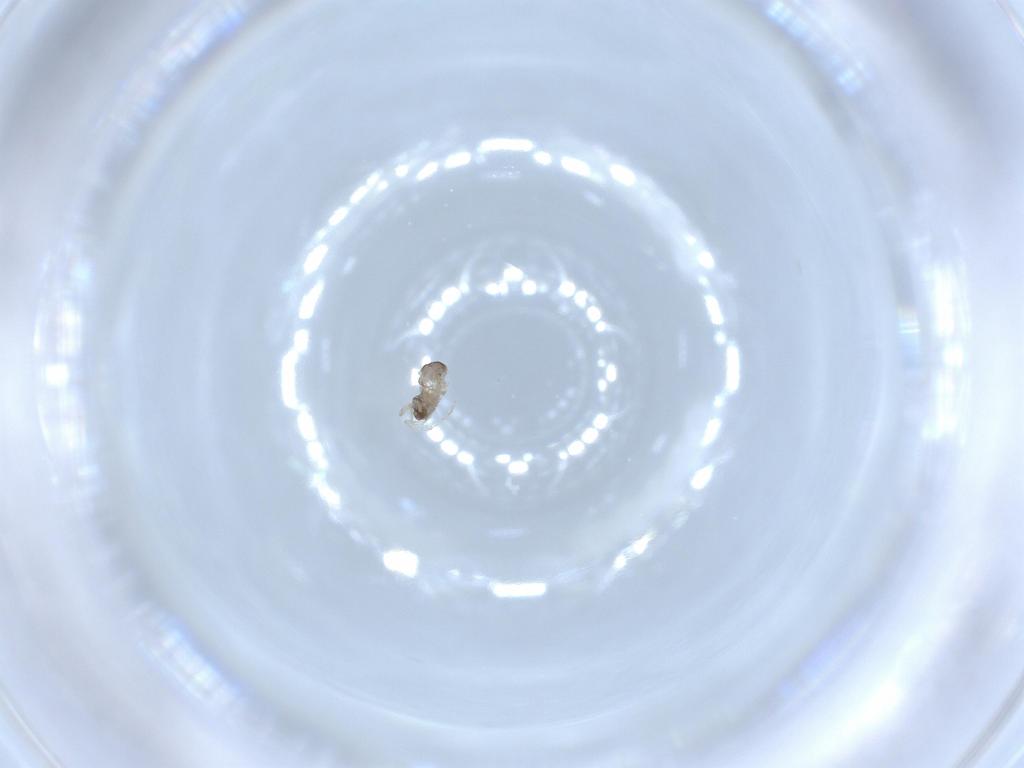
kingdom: Animalia
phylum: Arthropoda
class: Insecta
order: Diptera
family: Cecidomyiidae
